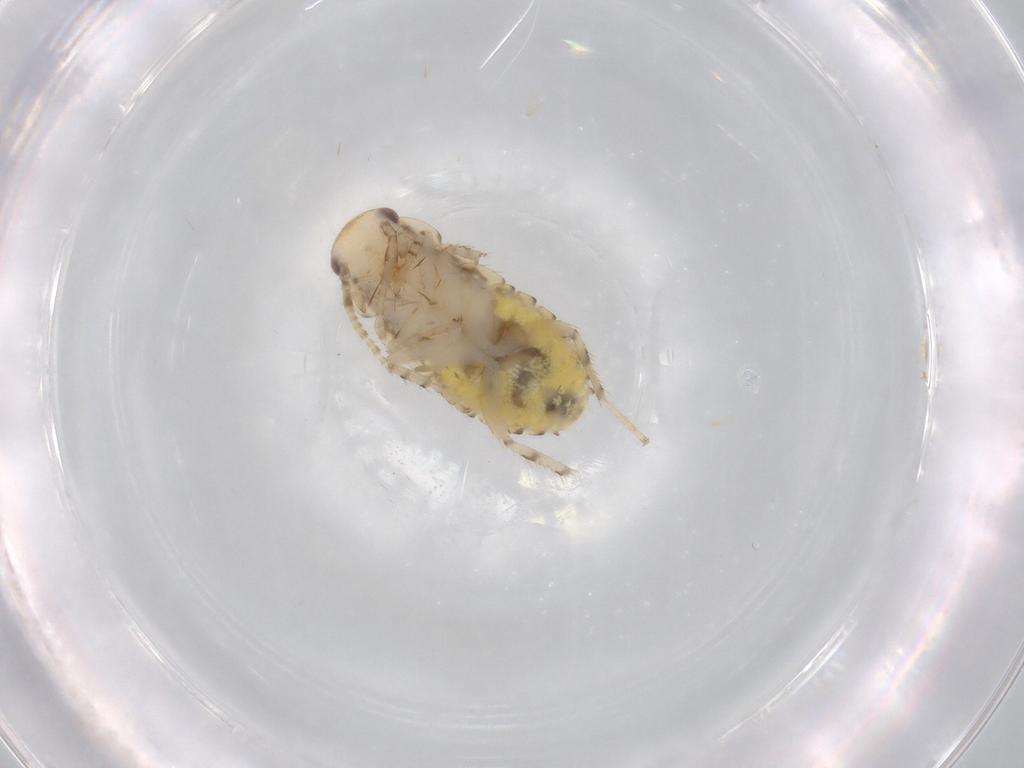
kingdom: Animalia
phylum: Arthropoda
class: Insecta
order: Blattodea
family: Ectobiidae
